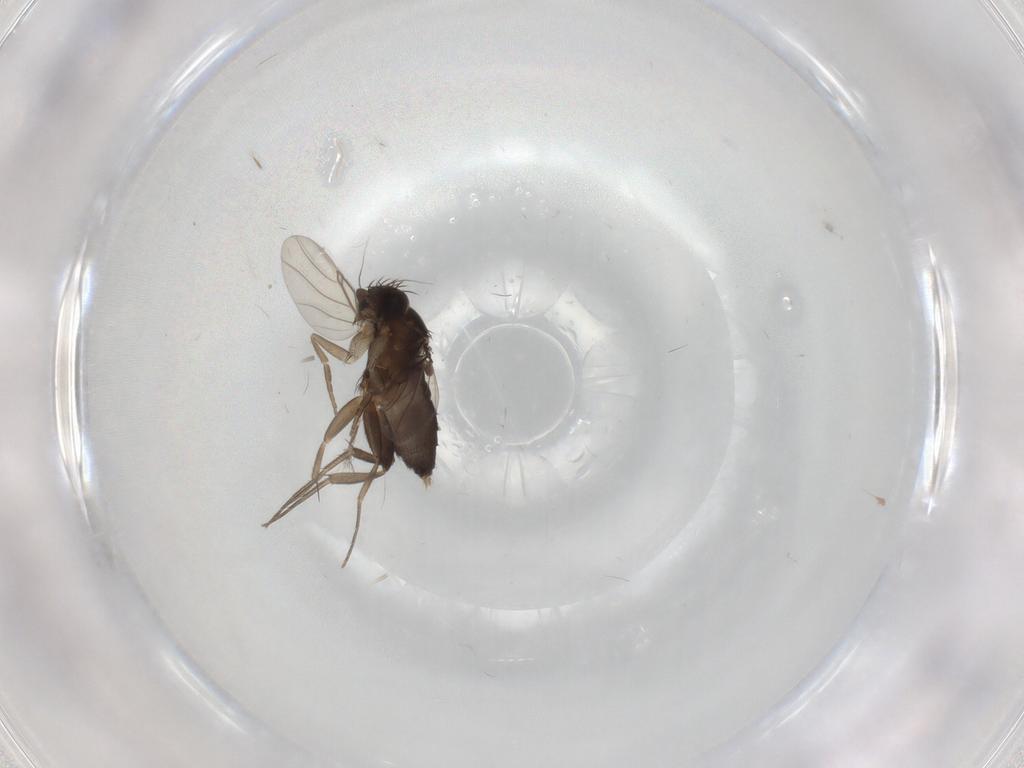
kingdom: Animalia
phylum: Arthropoda
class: Insecta
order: Diptera
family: Phoridae
